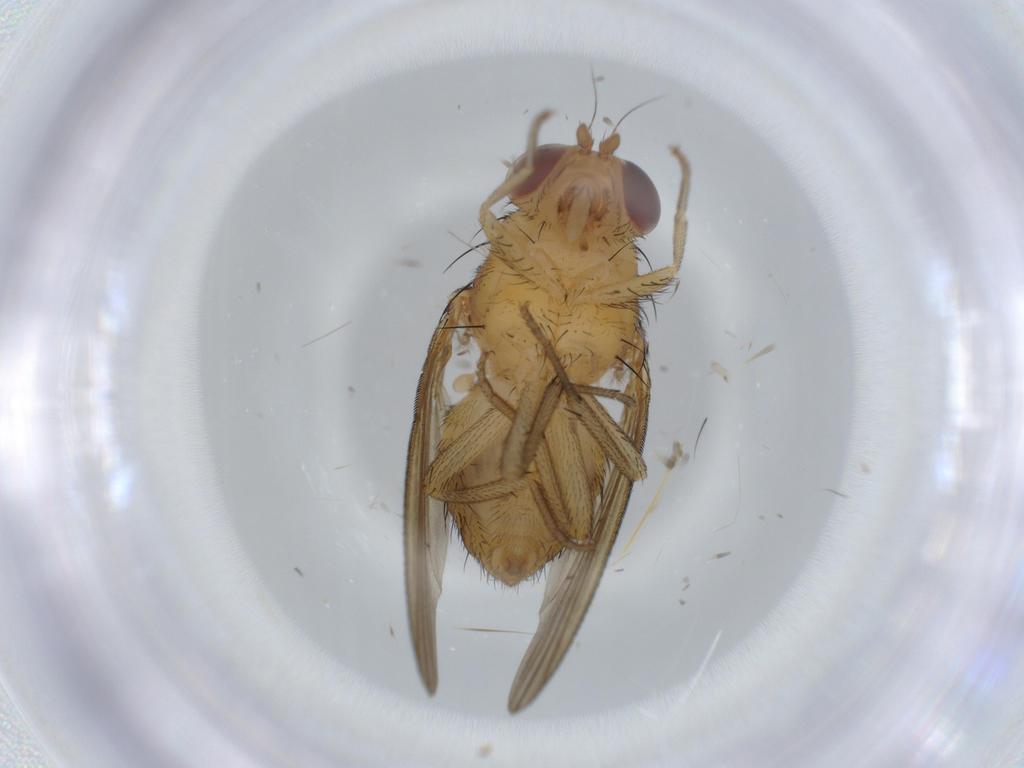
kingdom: Animalia
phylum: Arthropoda
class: Insecta
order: Diptera
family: Lauxaniidae
